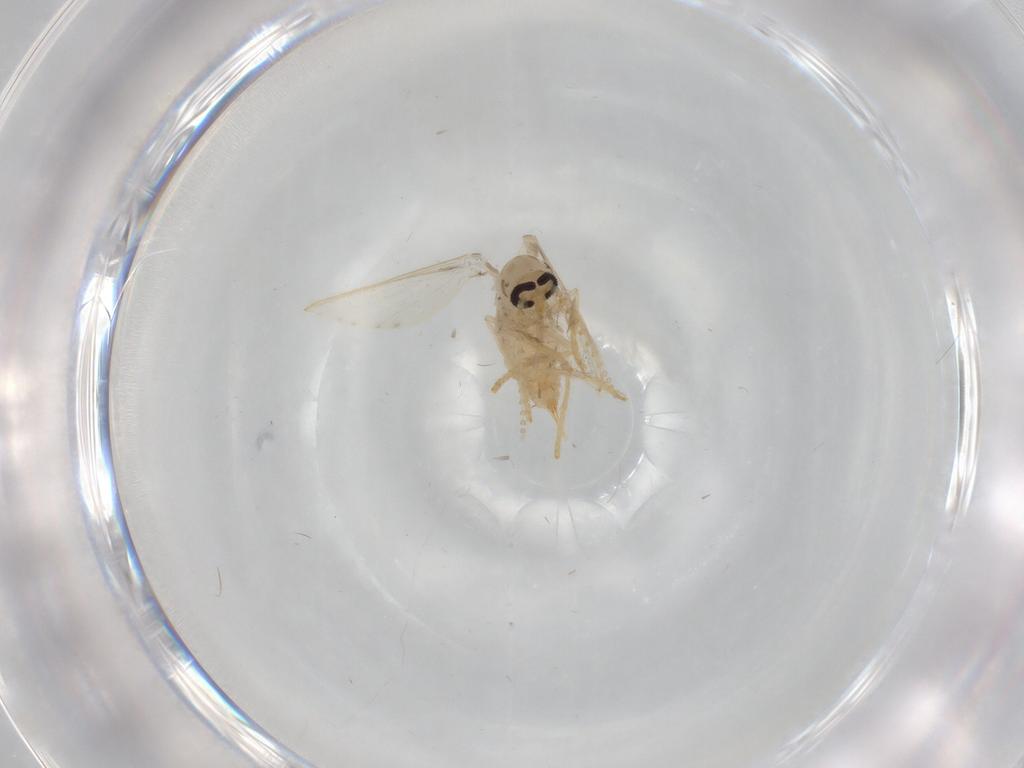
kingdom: Animalia
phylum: Arthropoda
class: Insecta
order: Diptera
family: Psychodidae
